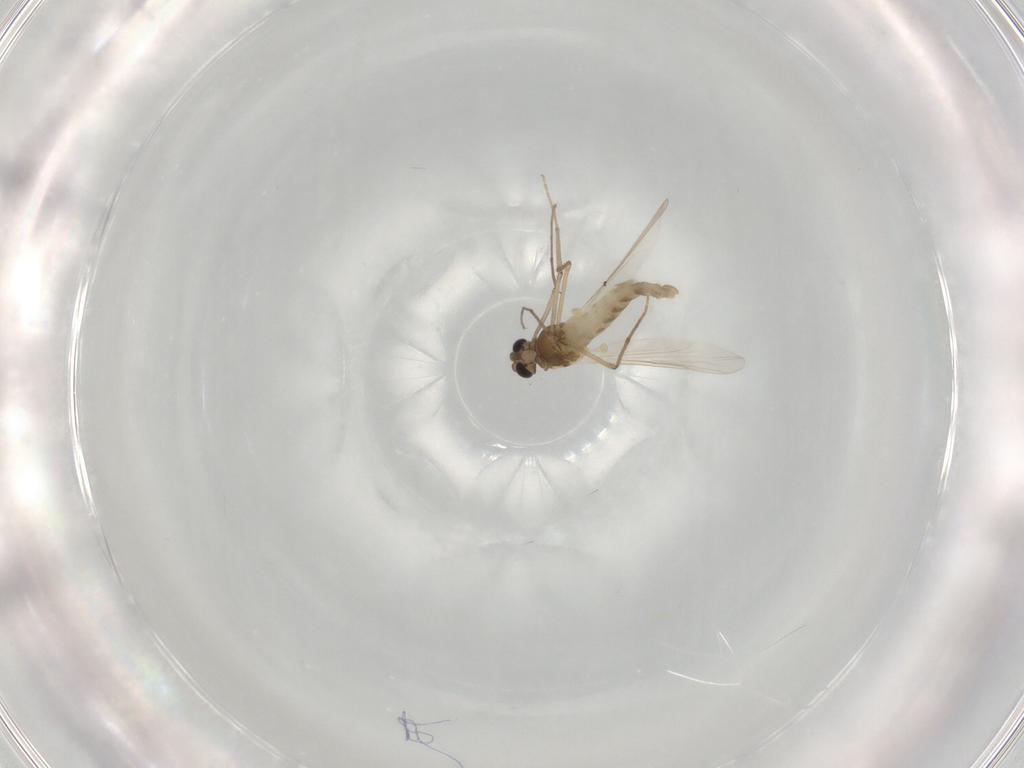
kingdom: Animalia
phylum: Arthropoda
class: Insecta
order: Diptera
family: Chironomidae
